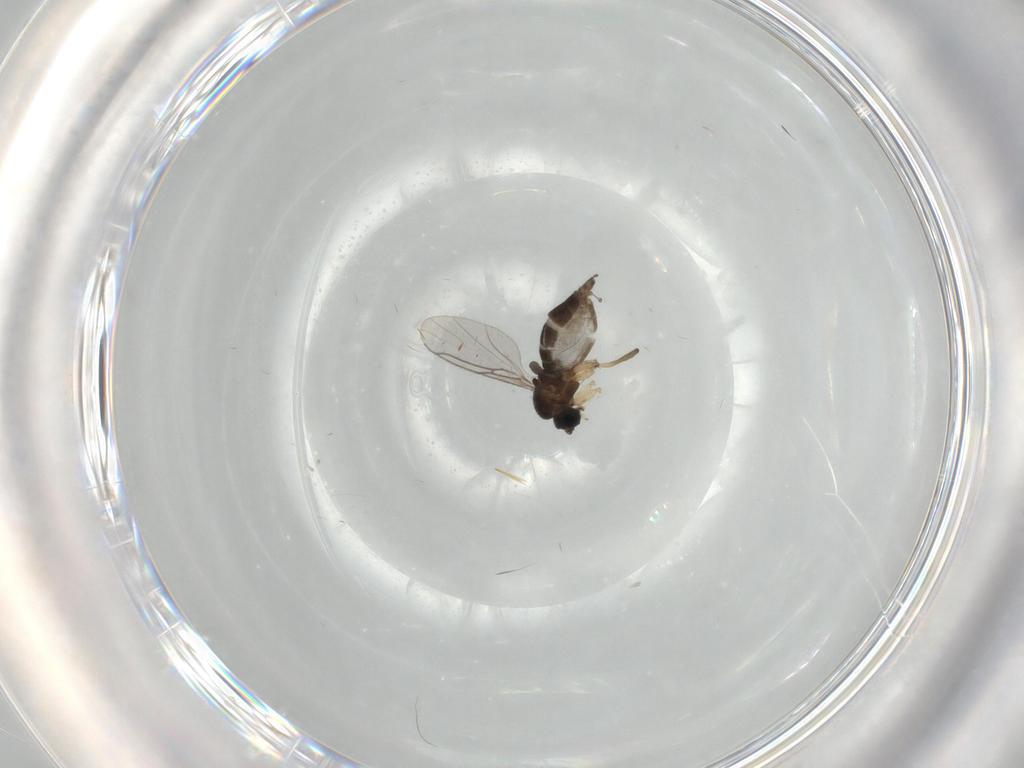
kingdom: Animalia
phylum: Arthropoda
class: Insecta
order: Diptera
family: Sciaridae
